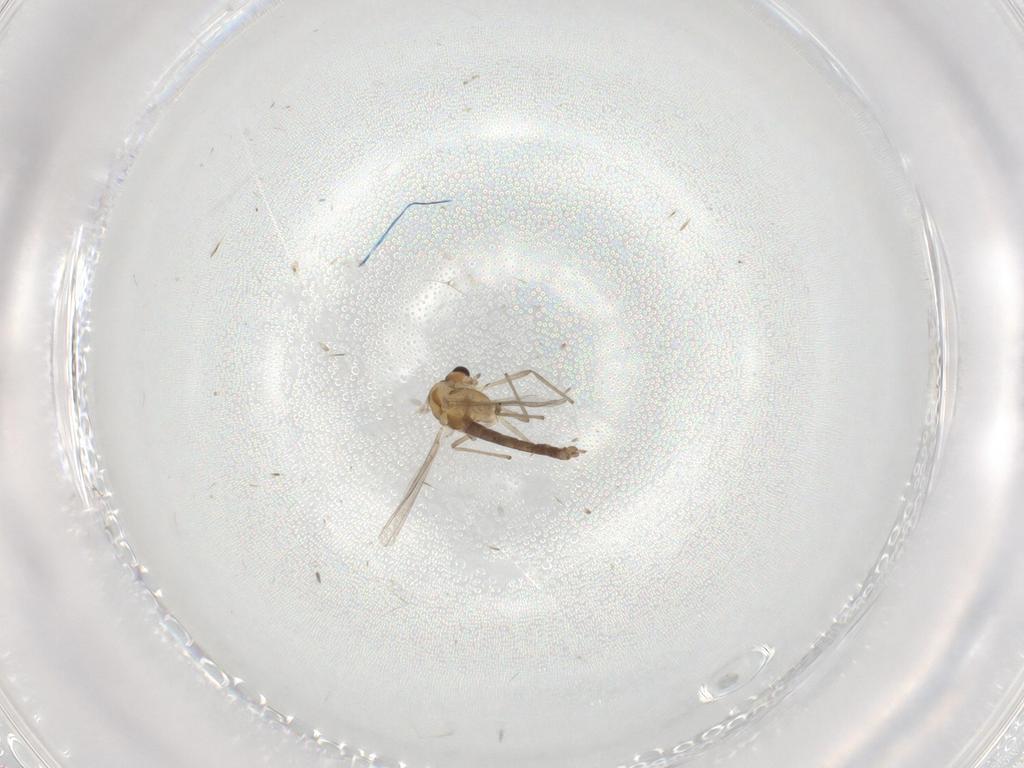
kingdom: Animalia
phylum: Arthropoda
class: Insecta
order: Diptera
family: Chironomidae
